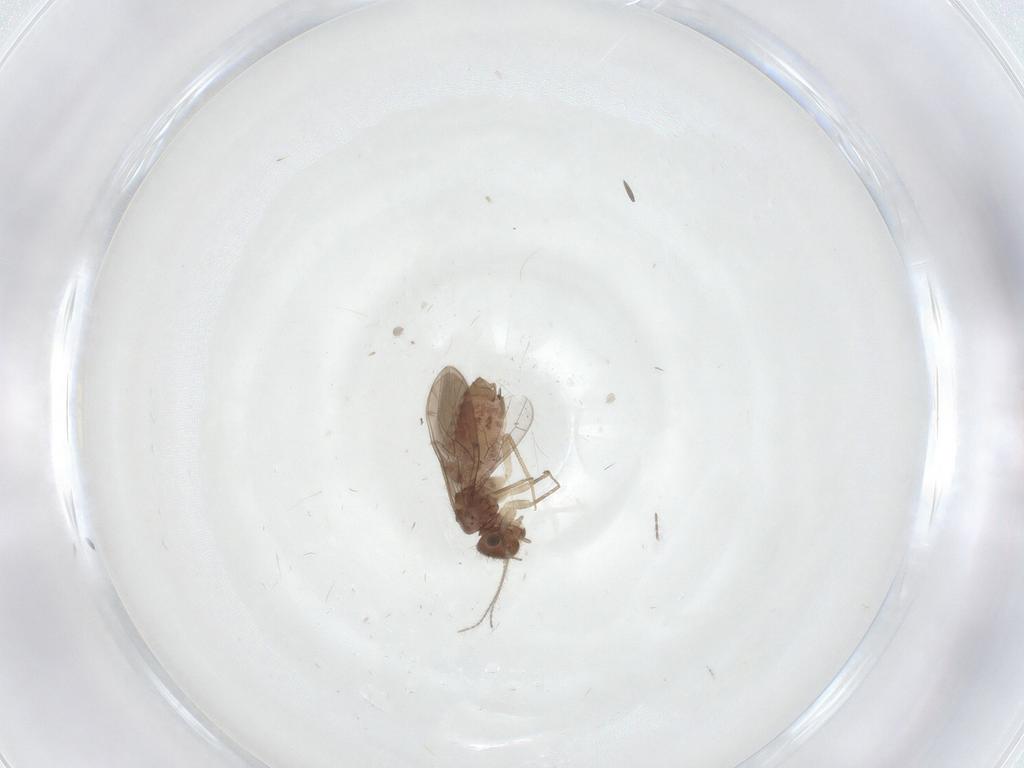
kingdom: Animalia
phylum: Arthropoda
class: Insecta
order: Psocodea
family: Ectopsocidae
